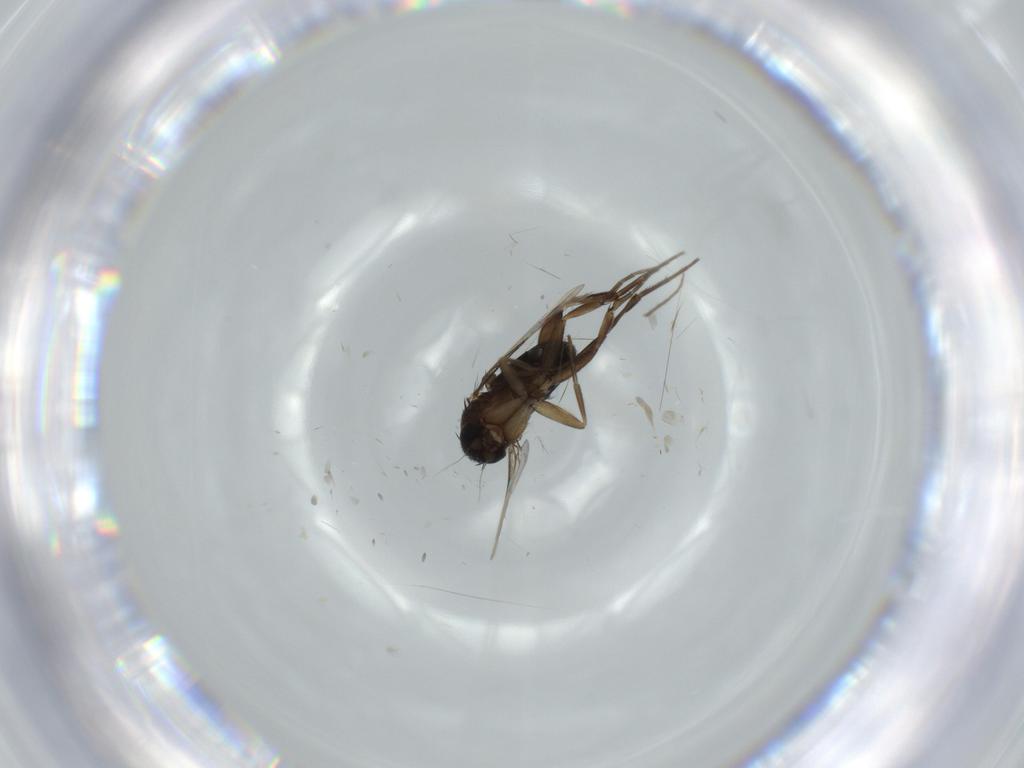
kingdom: Animalia
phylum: Arthropoda
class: Insecta
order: Diptera
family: Phoridae
